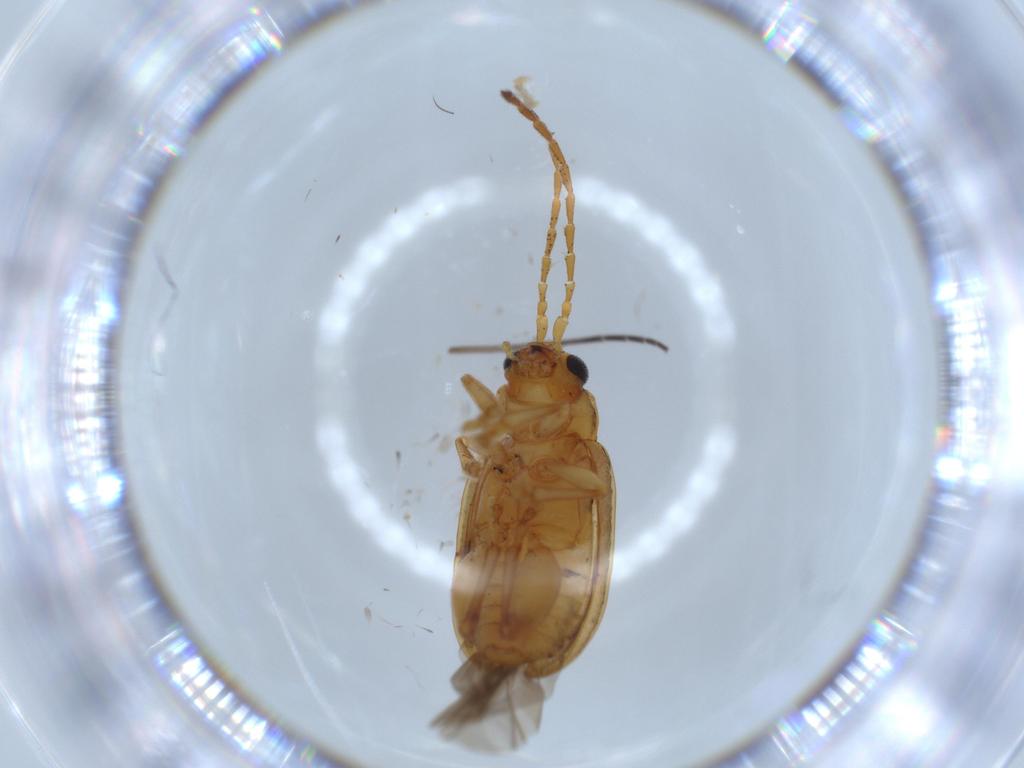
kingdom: Animalia
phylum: Arthropoda
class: Insecta
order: Coleoptera
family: Chrysomelidae
